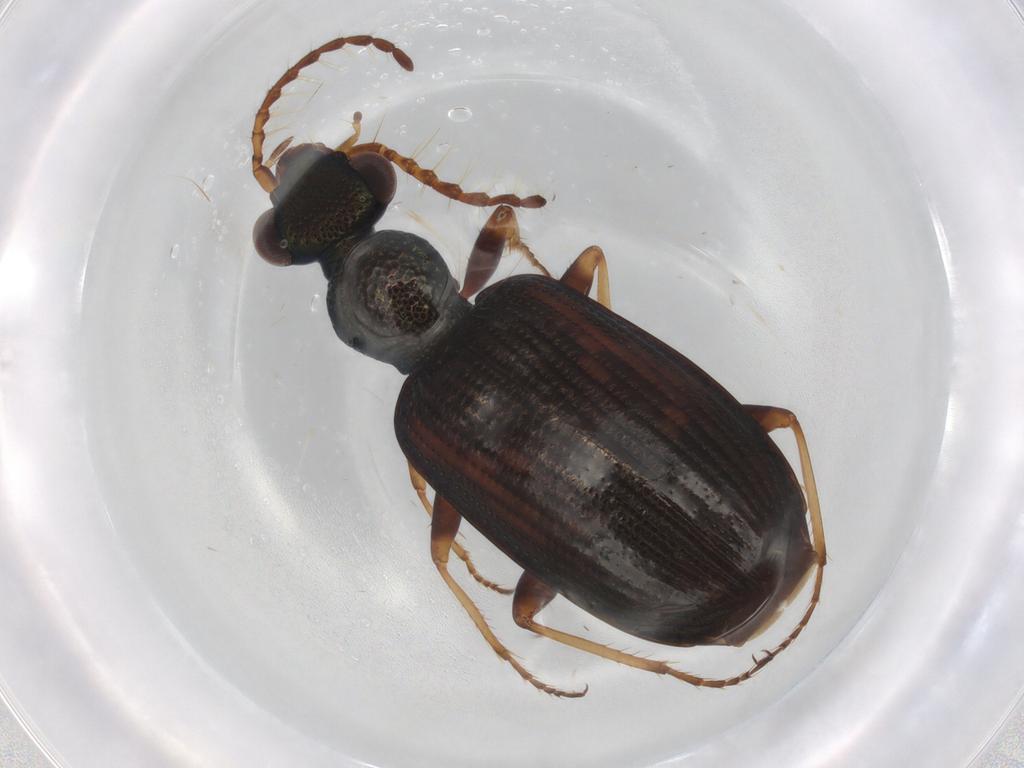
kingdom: Animalia
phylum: Arthropoda
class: Insecta
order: Coleoptera
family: Carabidae
